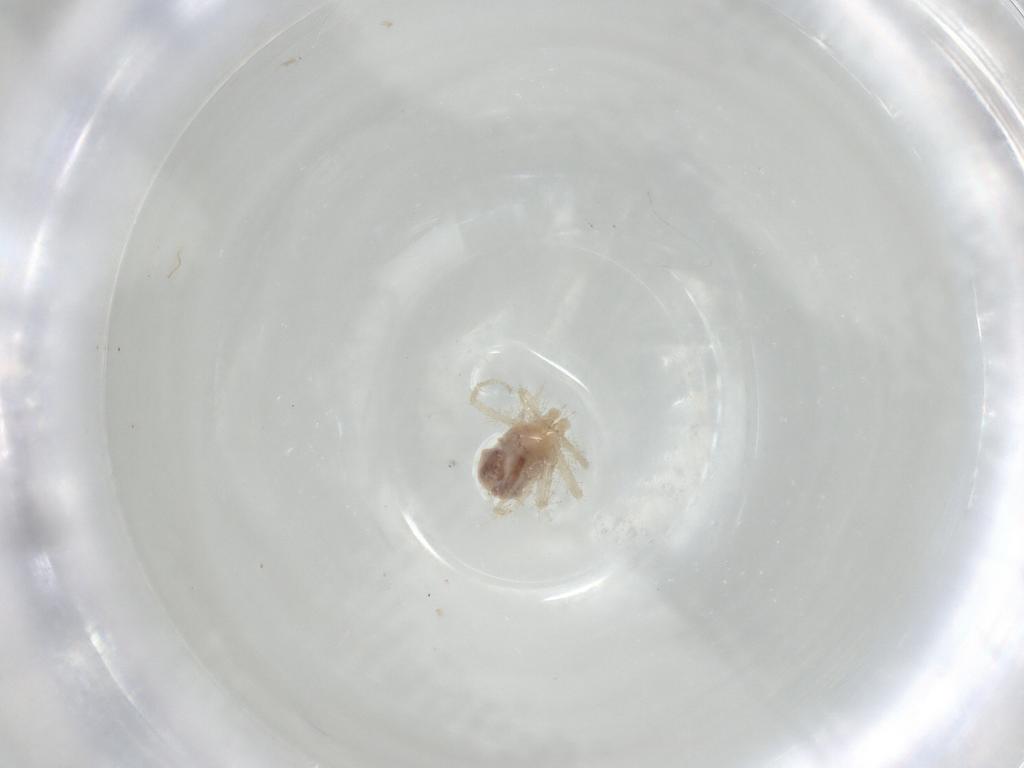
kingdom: Animalia
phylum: Arthropoda
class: Arachnida
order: Trombidiformes
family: Anystidae
